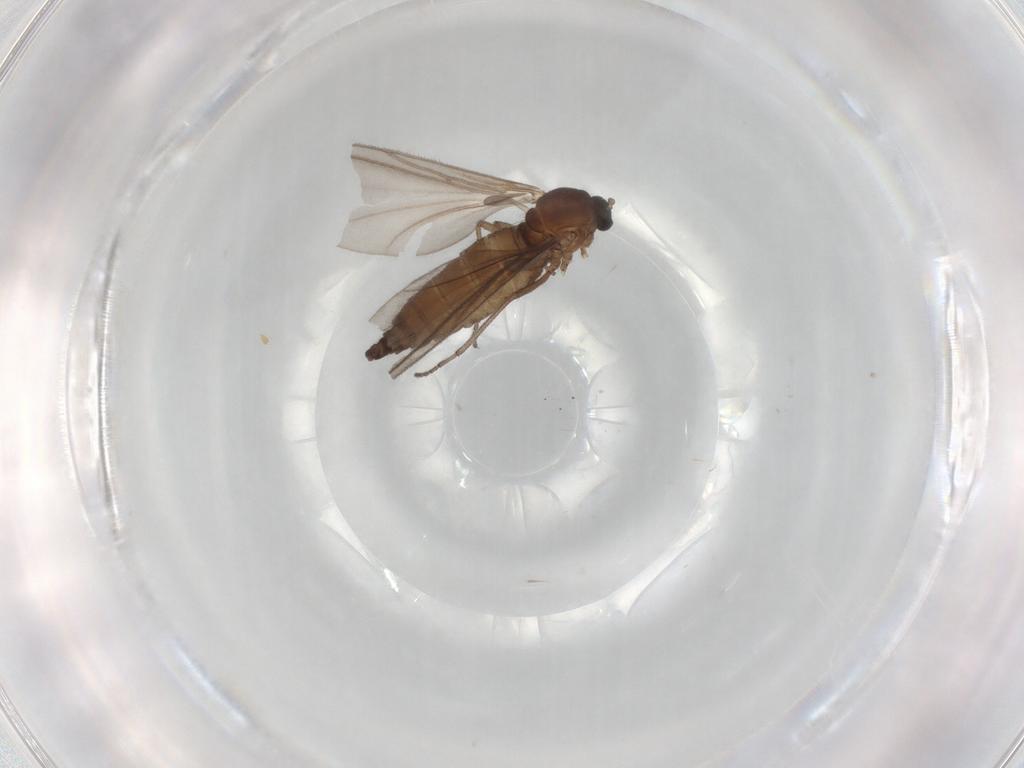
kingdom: Animalia
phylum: Arthropoda
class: Insecta
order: Diptera
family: Sciaridae
